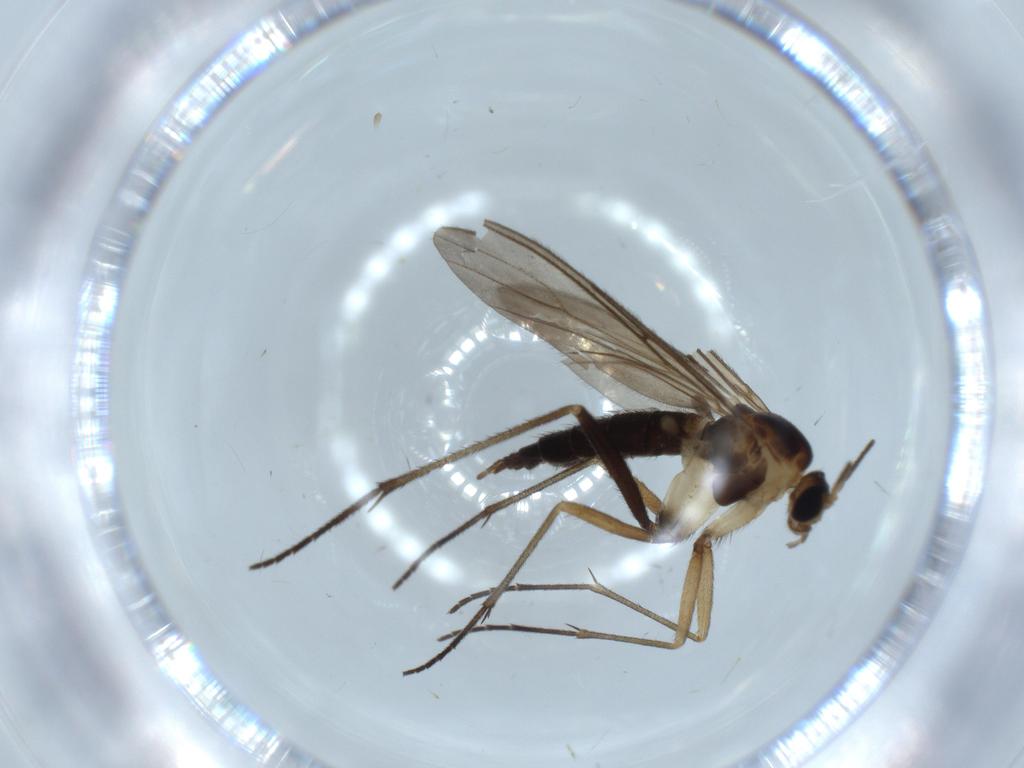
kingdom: Animalia
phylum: Arthropoda
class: Insecta
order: Diptera
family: Sciaridae
